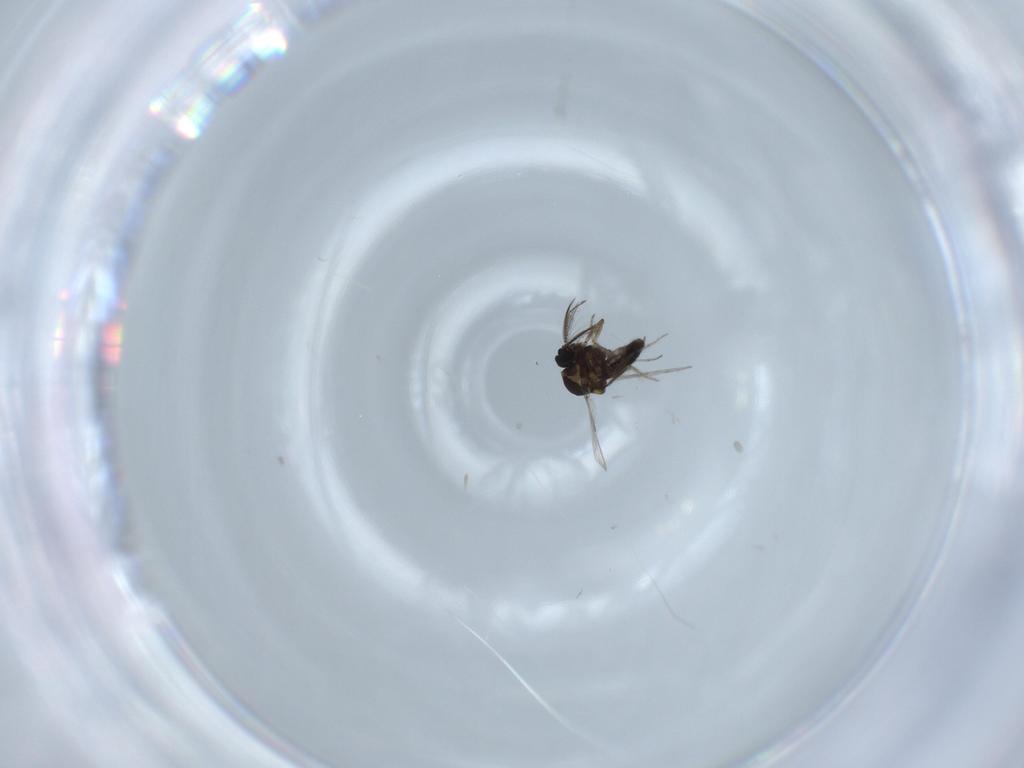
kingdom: Animalia
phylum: Arthropoda
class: Insecta
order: Diptera
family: Ceratopogonidae
